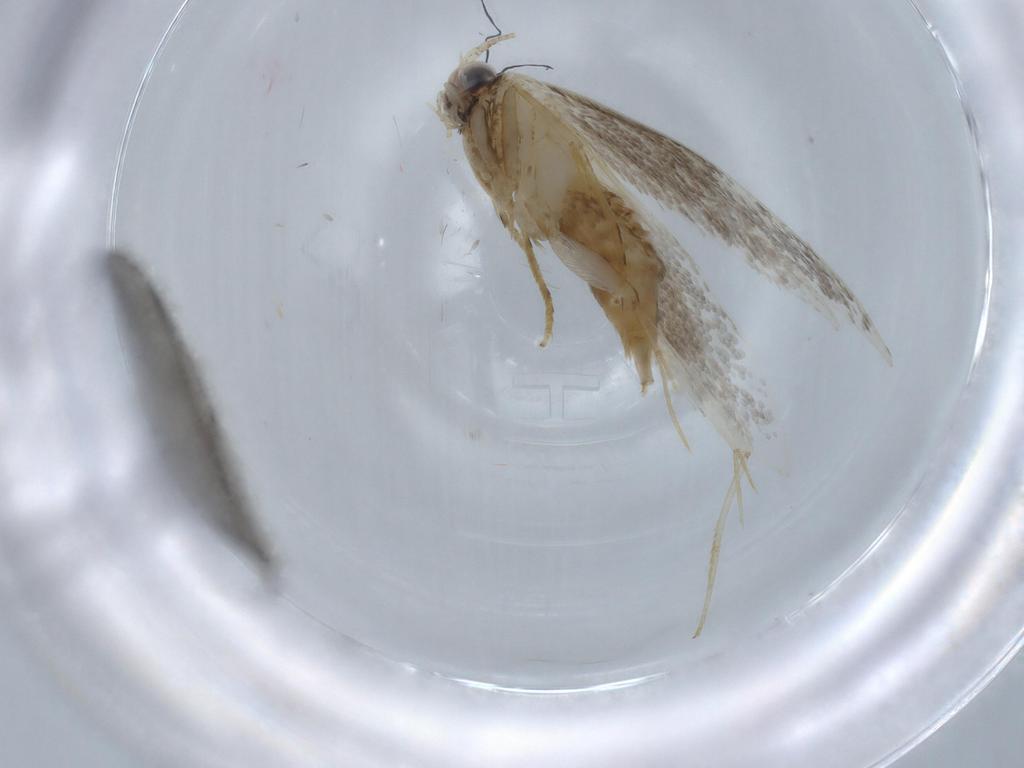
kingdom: Animalia
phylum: Arthropoda
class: Insecta
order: Lepidoptera
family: Tineidae
